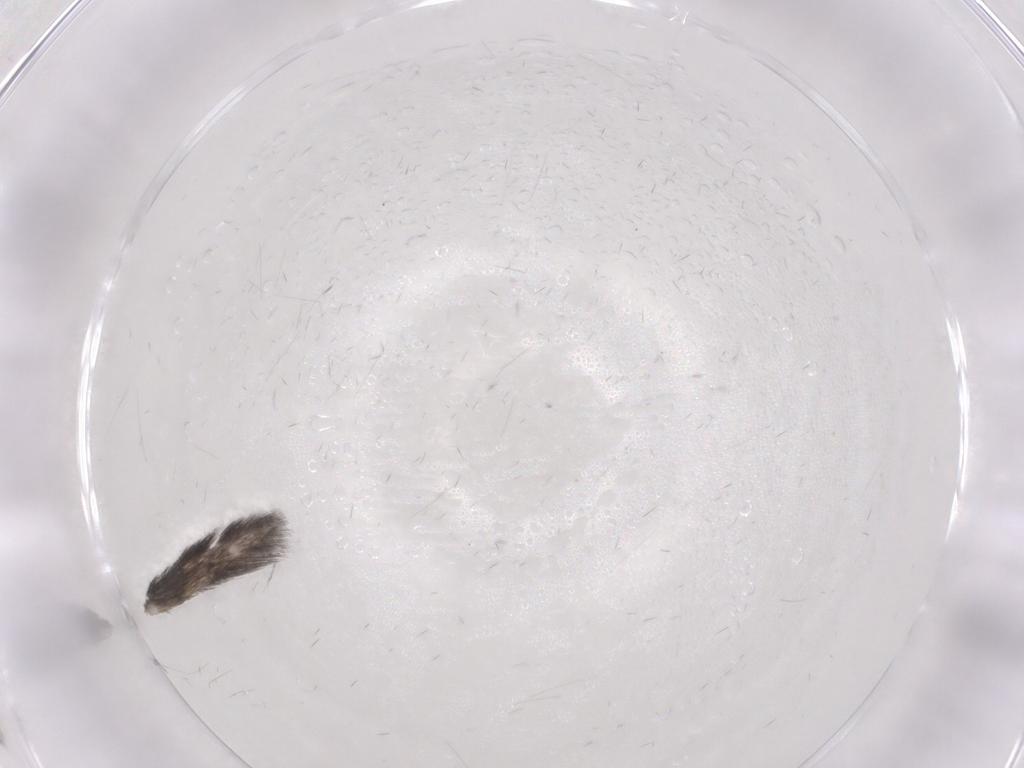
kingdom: Animalia
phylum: Arthropoda
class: Insecta
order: Trichoptera
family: Hydroptilidae
